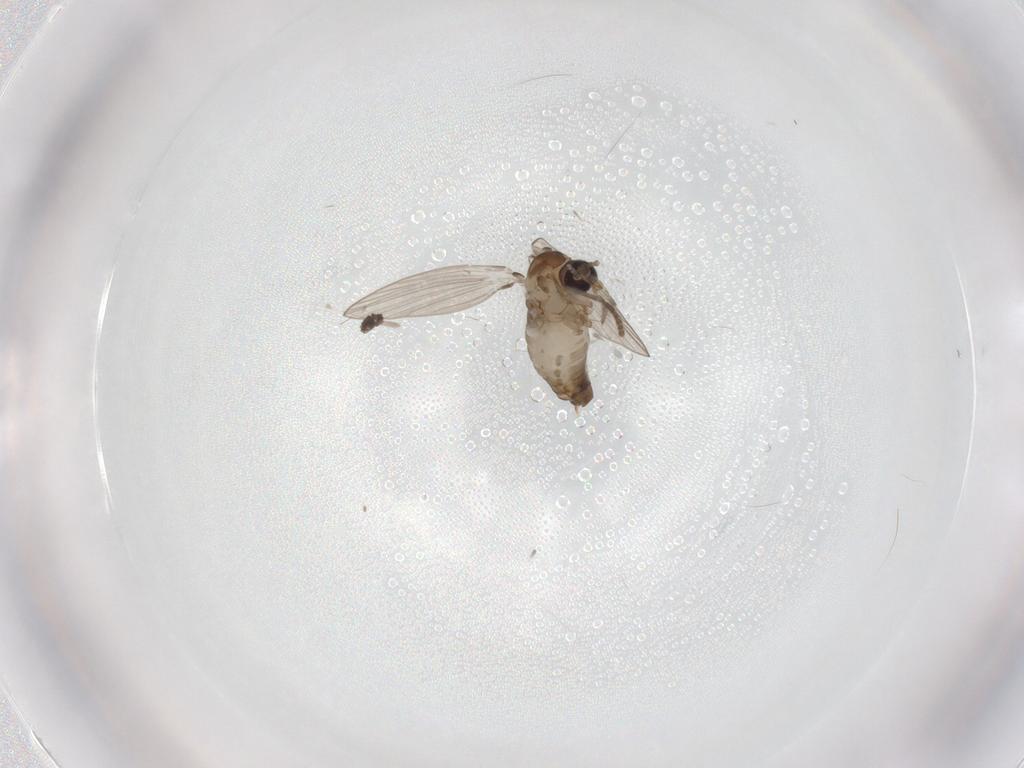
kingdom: Animalia
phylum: Arthropoda
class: Insecta
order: Diptera
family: Psychodidae
